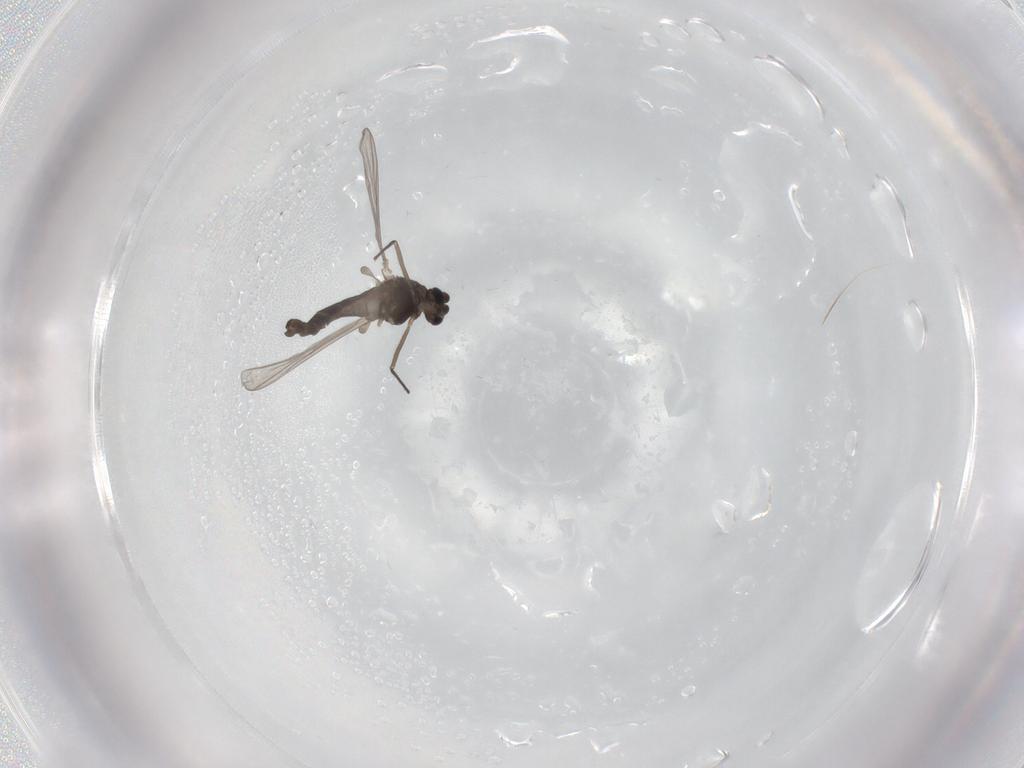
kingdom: Animalia
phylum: Arthropoda
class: Insecta
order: Diptera
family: Chironomidae
